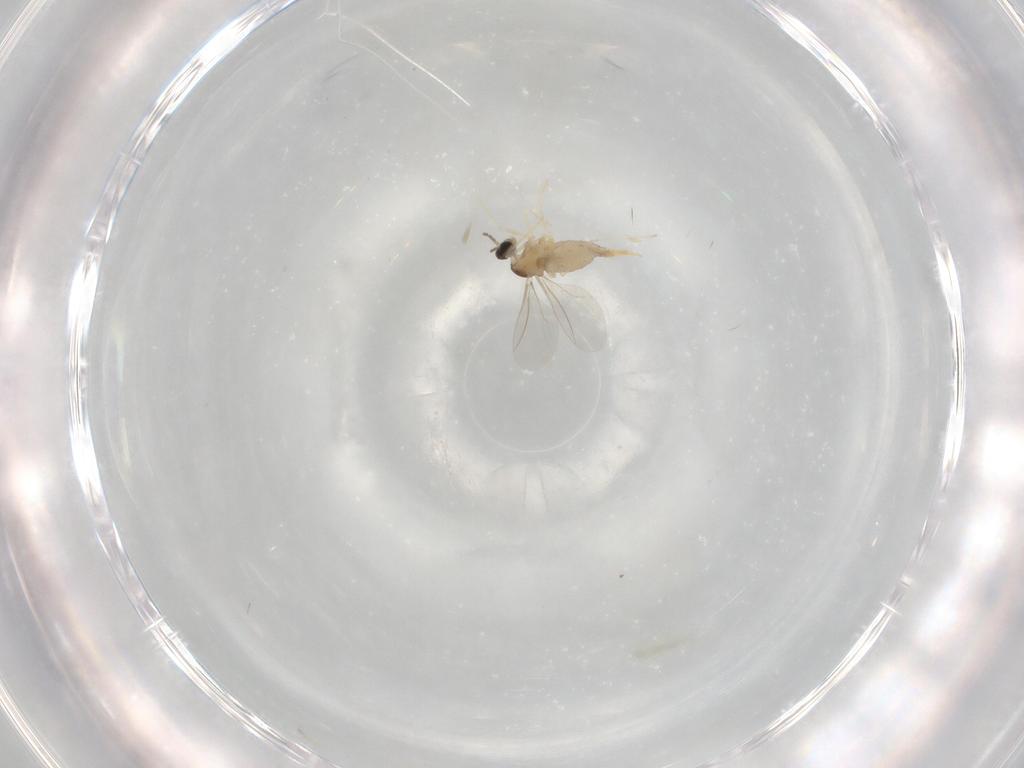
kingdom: Animalia
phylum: Arthropoda
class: Insecta
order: Diptera
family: Cecidomyiidae
